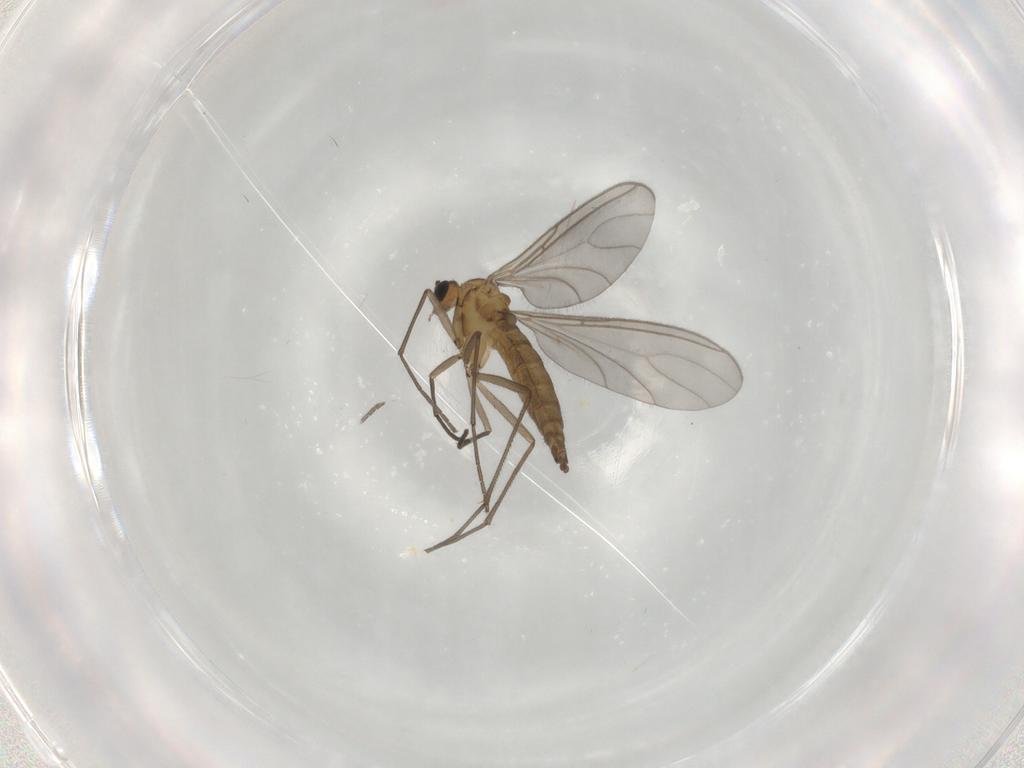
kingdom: Animalia
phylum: Arthropoda
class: Insecta
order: Diptera
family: Sciaridae
